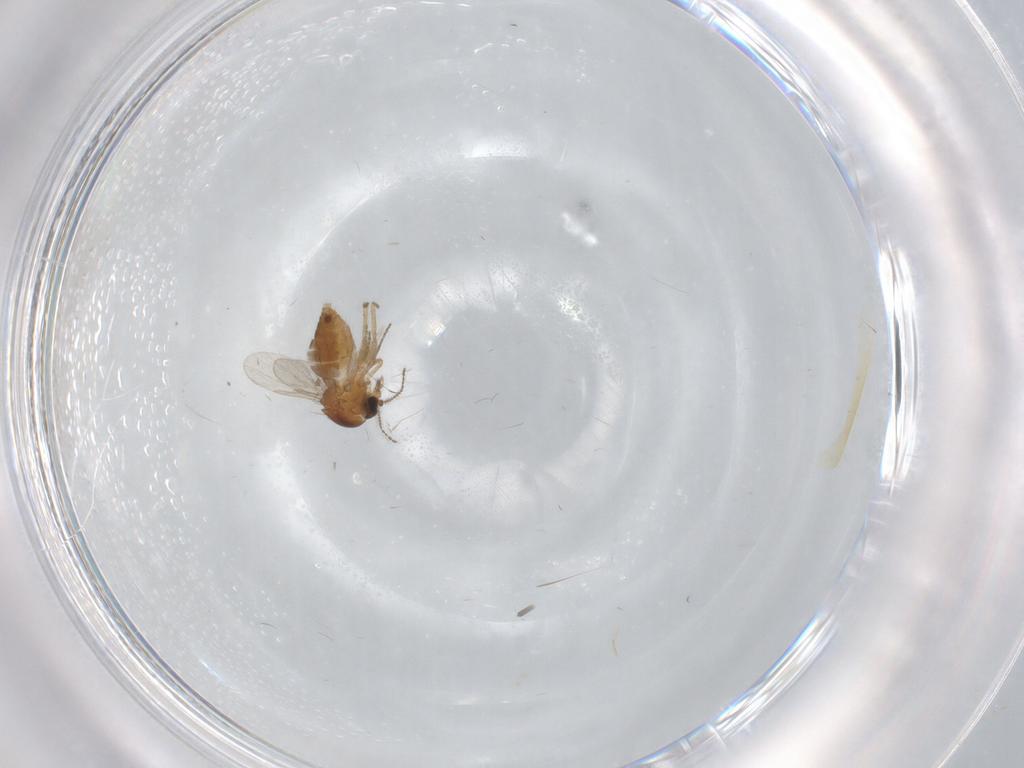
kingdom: Animalia
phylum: Arthropoda
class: Insecta
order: Diptera
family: Ceratopogonidae
